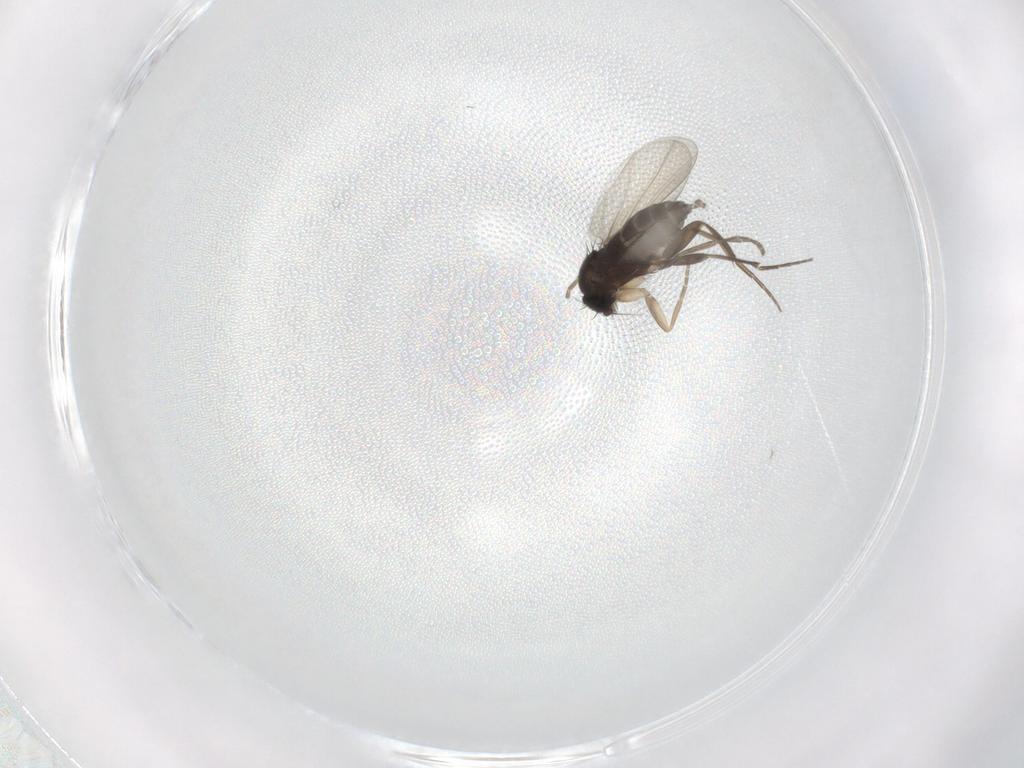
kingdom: Animalia
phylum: Arthropoda
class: Insecta
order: Diptera
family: Phoridae
